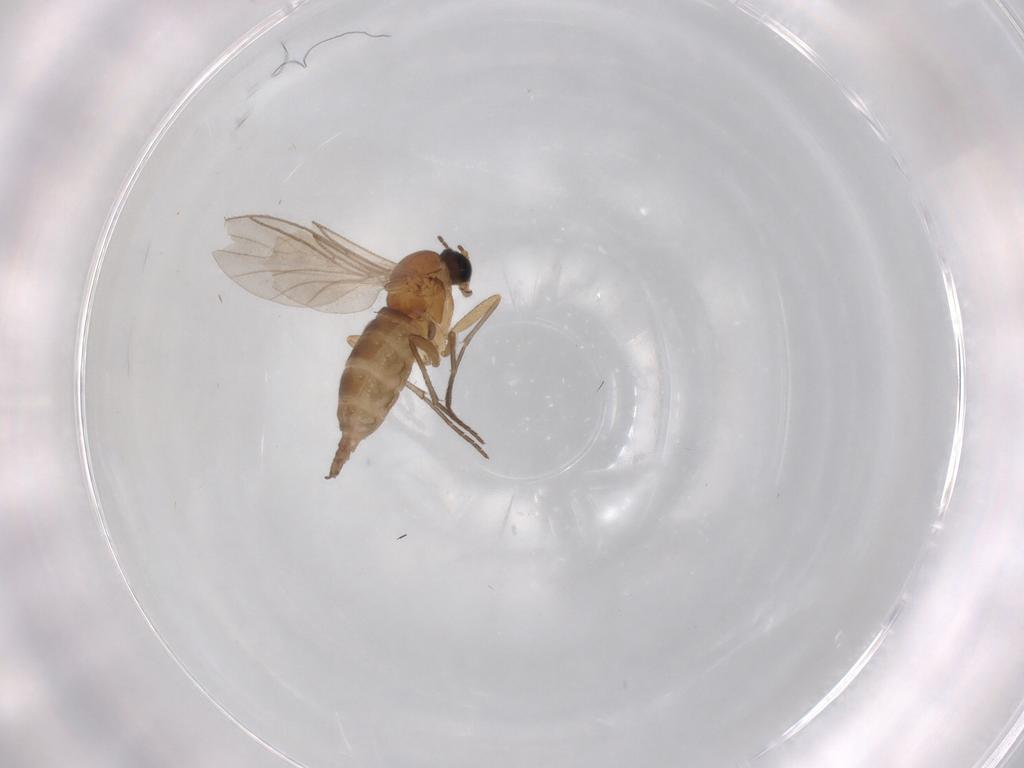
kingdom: Animalia
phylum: Arthropoda
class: Insecta
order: Diptera
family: Sciaridae
